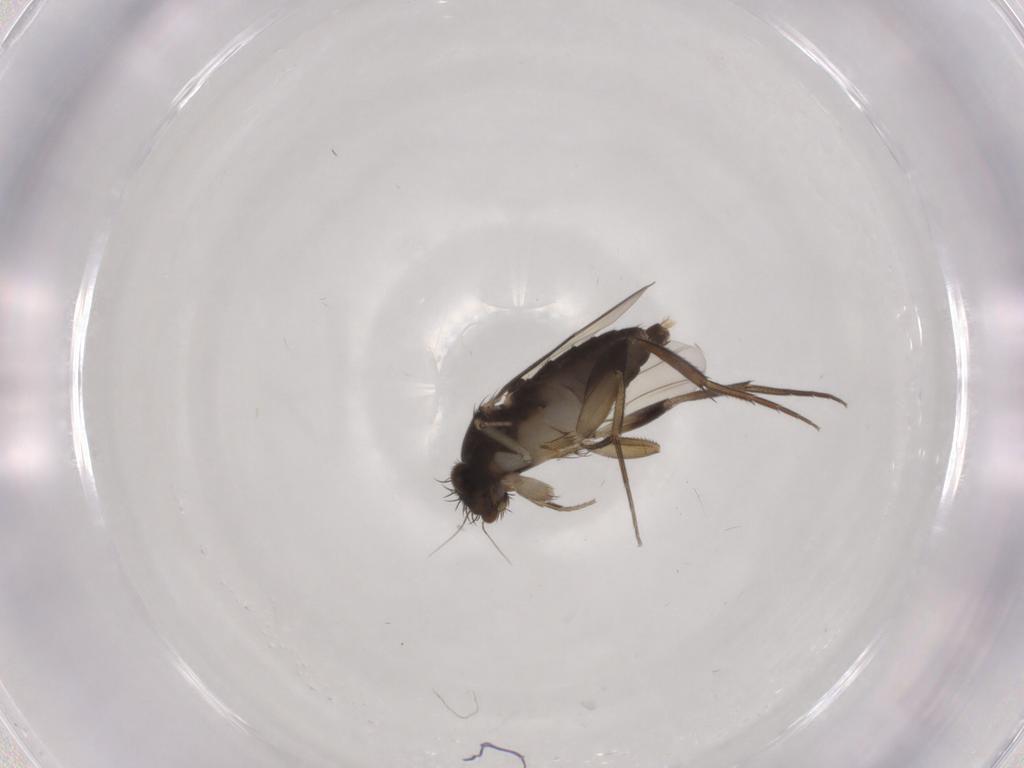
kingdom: Animalia
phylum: Arthropoda
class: Insecta
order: Diptera
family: Phoridae
